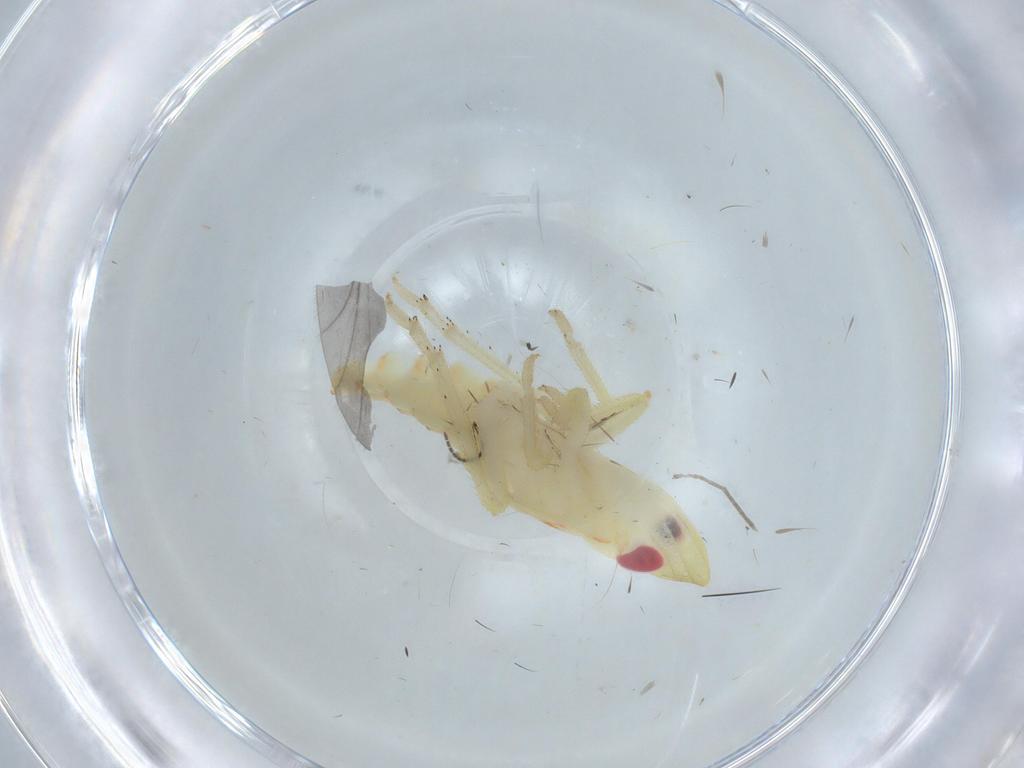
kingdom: Animalia
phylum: Arthropoda
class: Insecta
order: Hemiptera
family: Tropiduchidae
